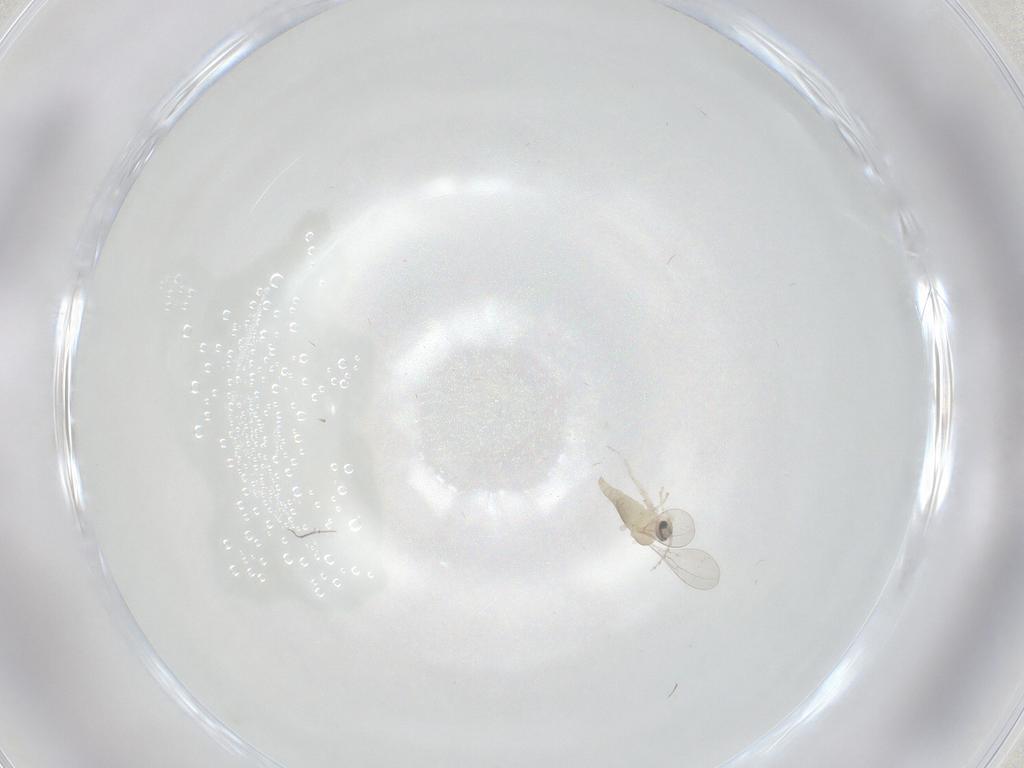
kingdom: Animalia
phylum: Arthropoda
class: Insecta
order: Diptera
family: Cecidomyiidae
